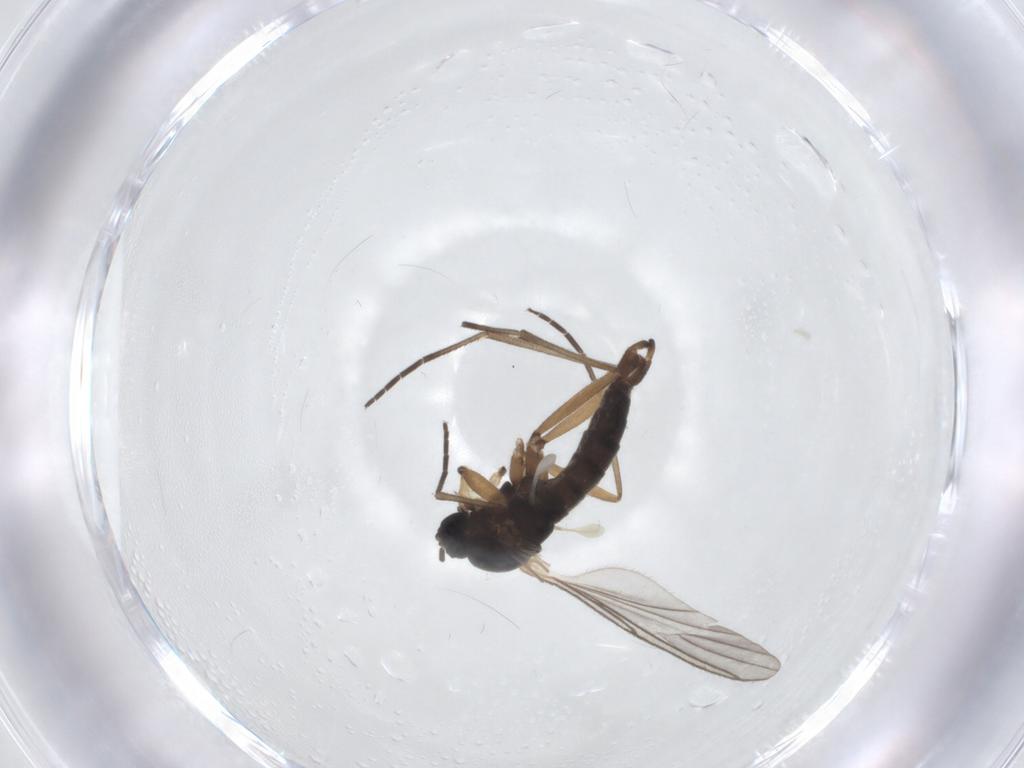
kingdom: Animalia
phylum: Arthropoda
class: Insecta
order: Diptera
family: Sciaridae
